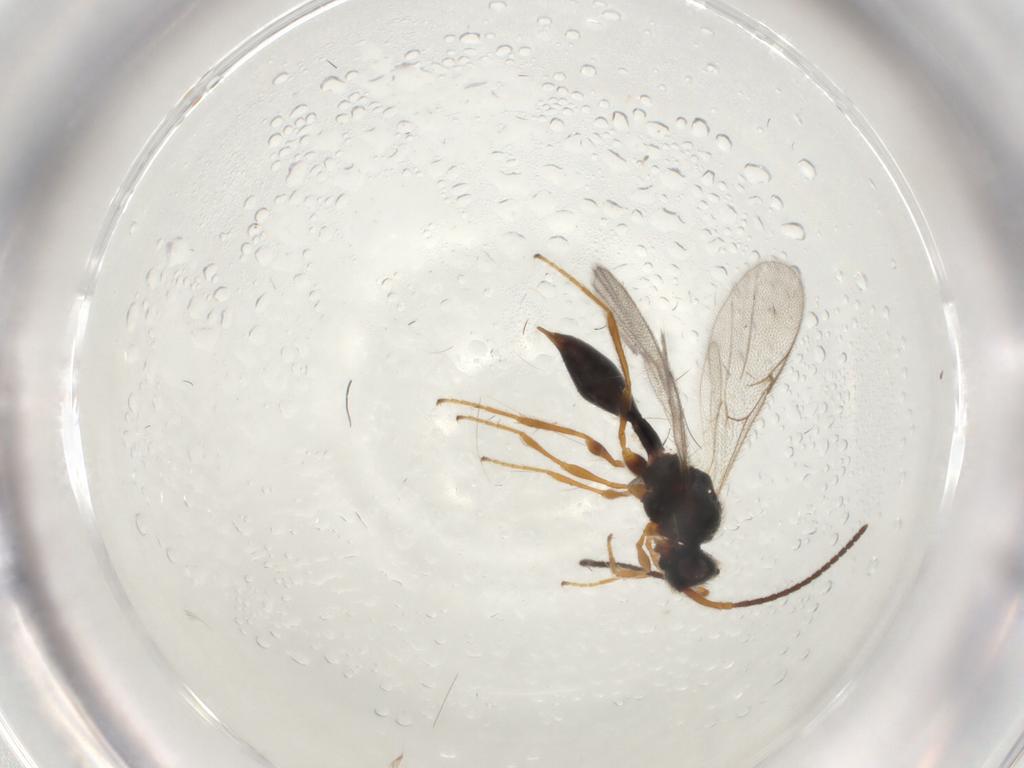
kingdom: Animalia
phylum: Arthropoda
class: Insecta
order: Hymenoptera
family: Diapriidae
